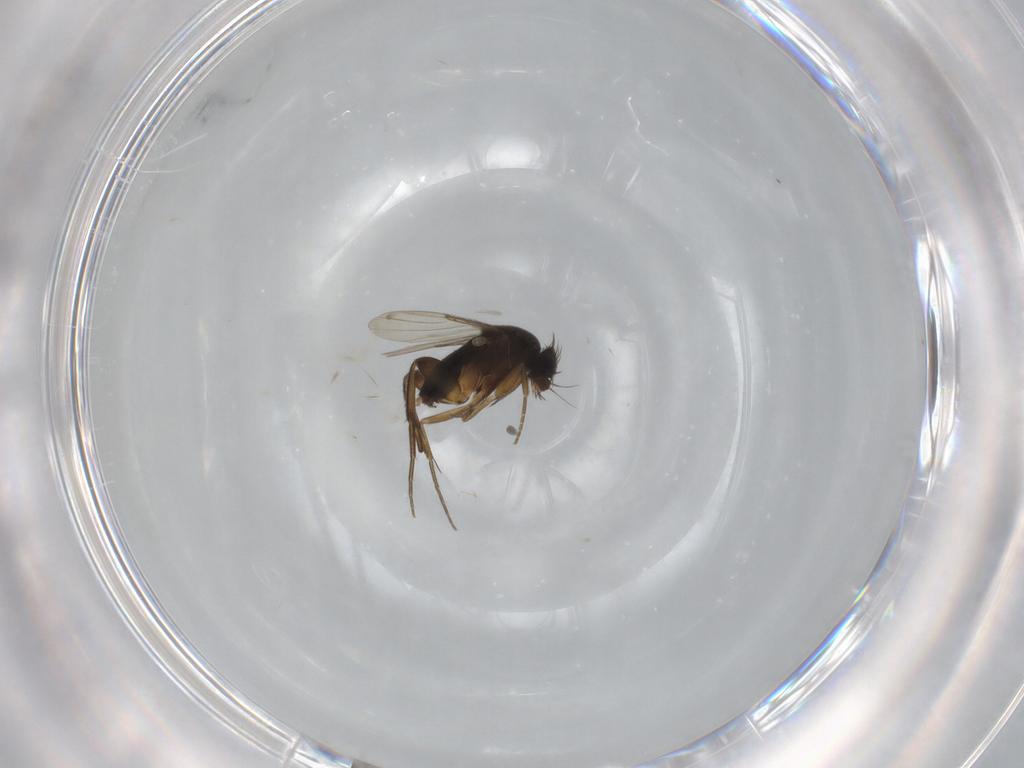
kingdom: Animalia
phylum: Arthropoda
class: Insecta
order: Diptera
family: Phoridae
